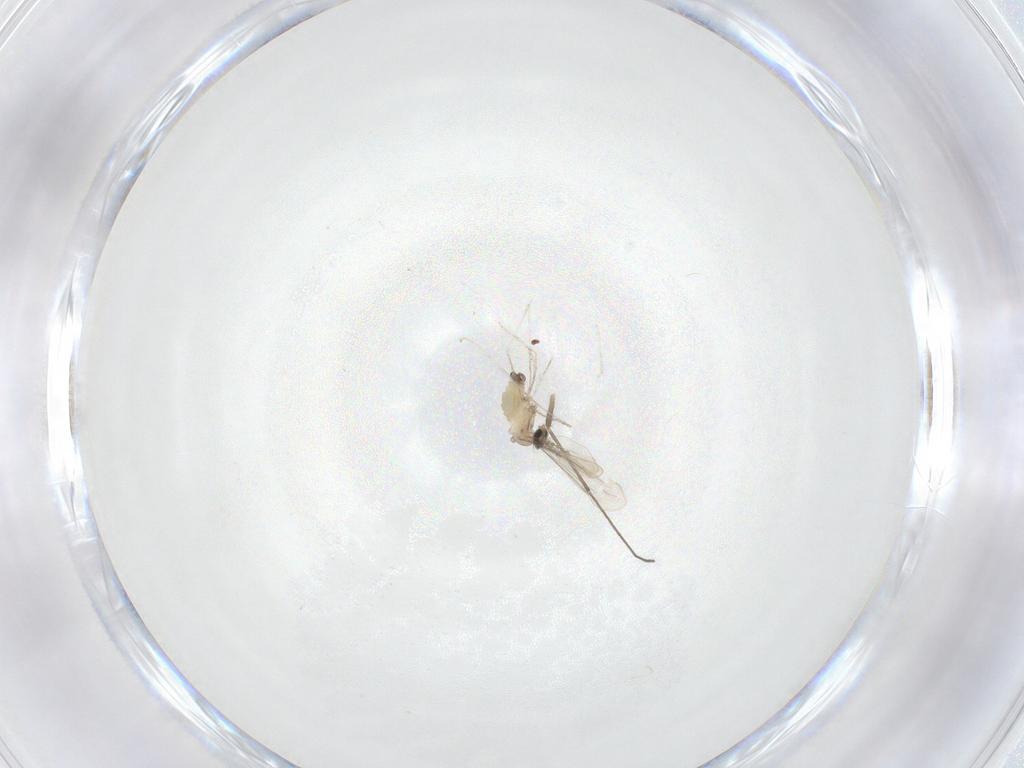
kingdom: Animalia
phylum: Arthropoda
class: Insecta
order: Diptera
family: Cecidomyiidae
